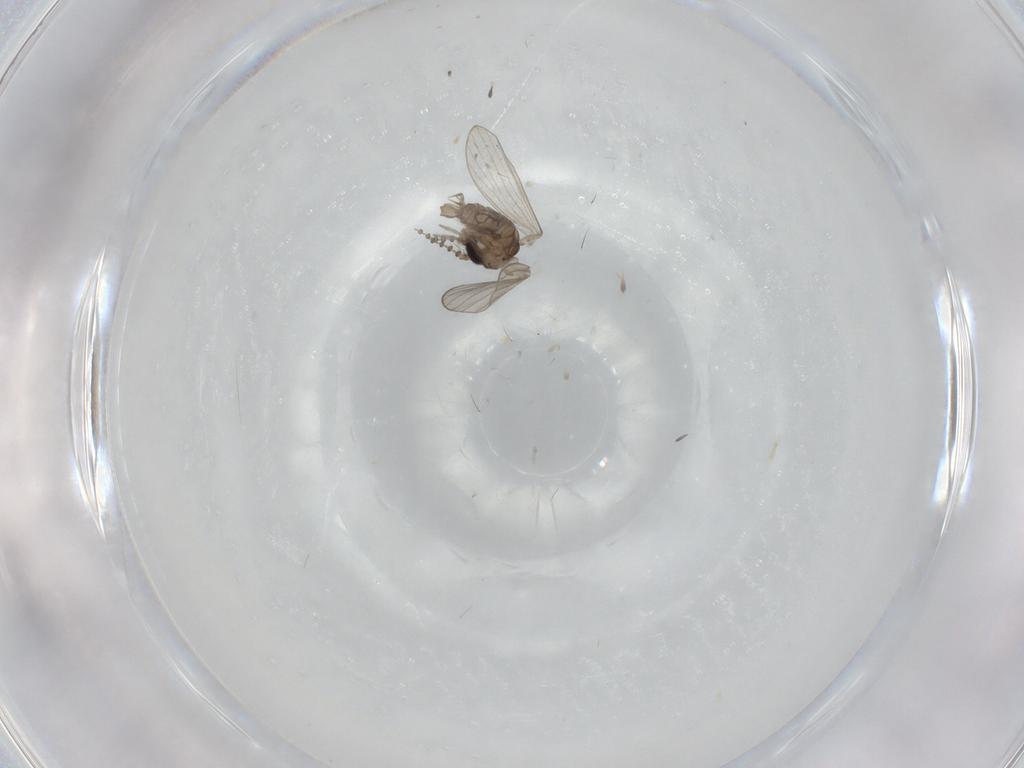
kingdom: Animalia
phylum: Arthropoda
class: Insecta
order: Diptera
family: Psychodidae
